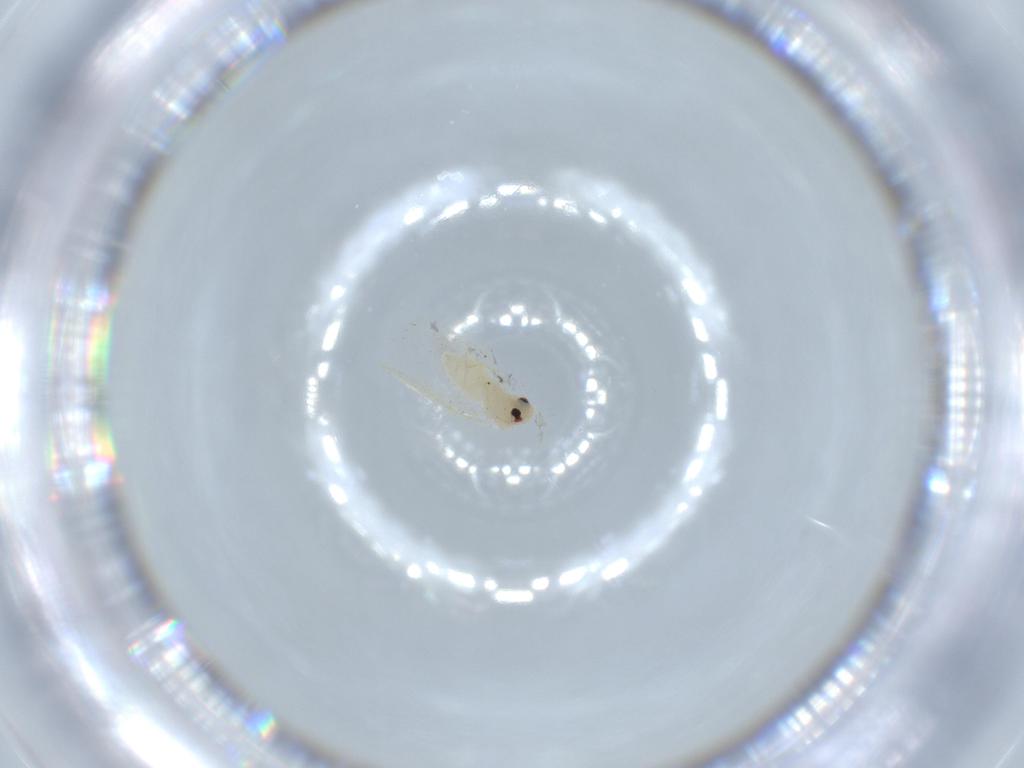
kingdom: Animalia
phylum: Arthropoda
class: Insecta
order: Hemiptera
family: Aleyrodidae
